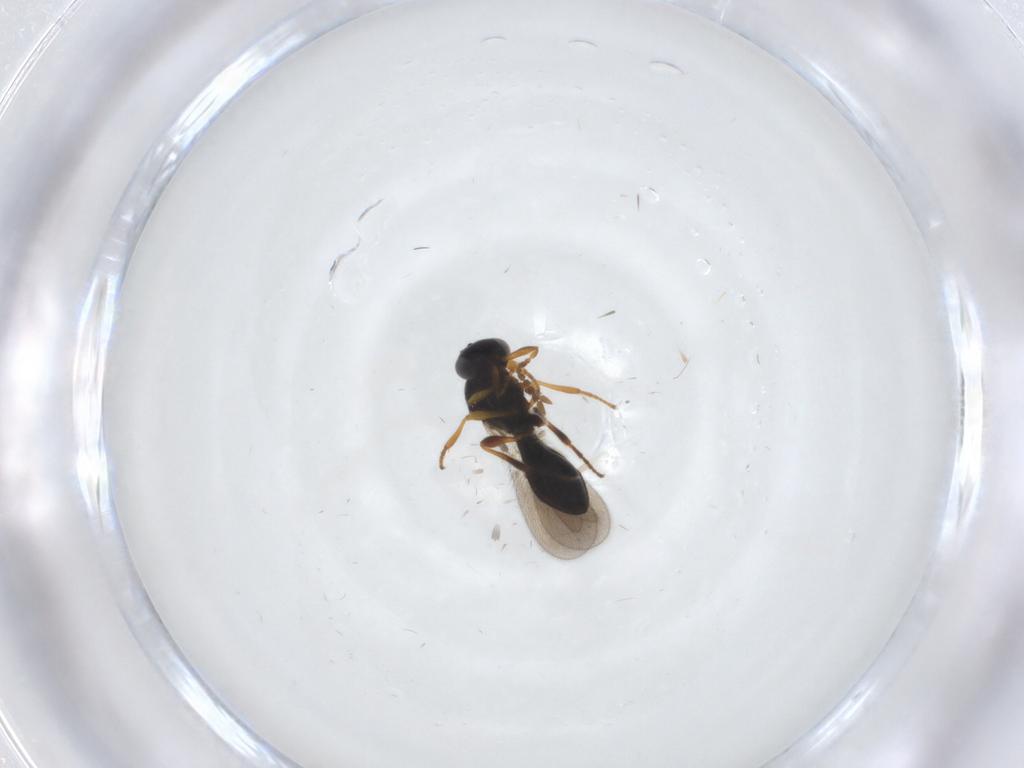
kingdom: Animalia
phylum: Arthropoda
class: Insecta
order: Hymenoptera
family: Platygastridae
